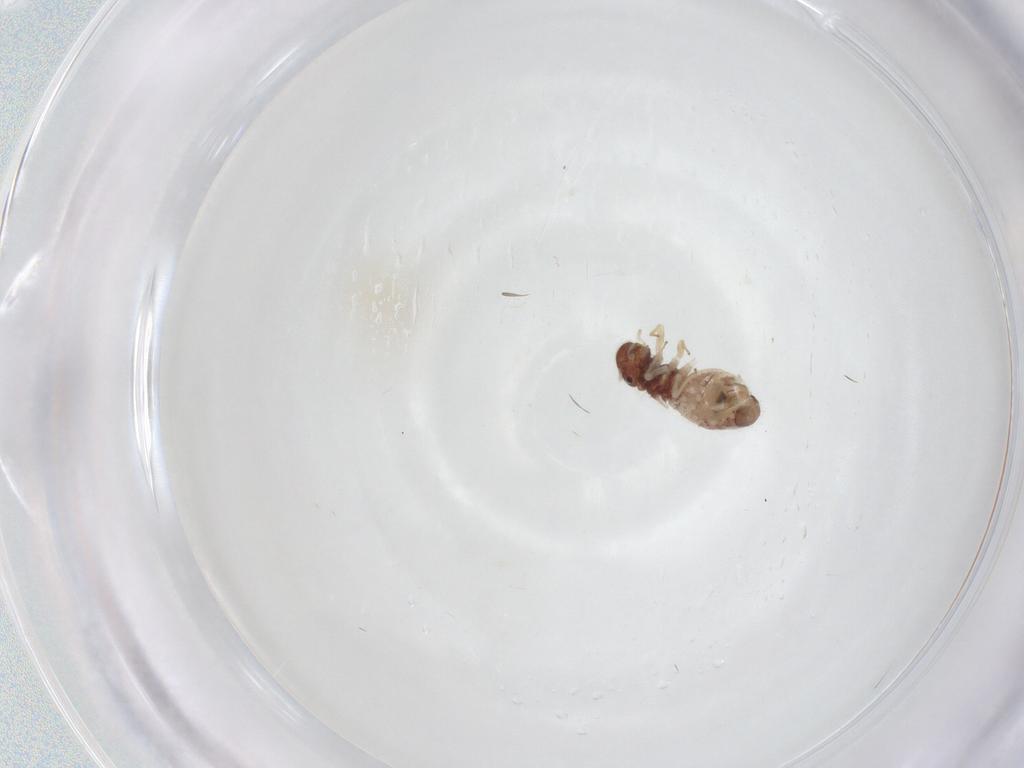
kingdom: Animalia
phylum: Arthropoda
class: Insecta
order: Psocodea
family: Archipsocidae
